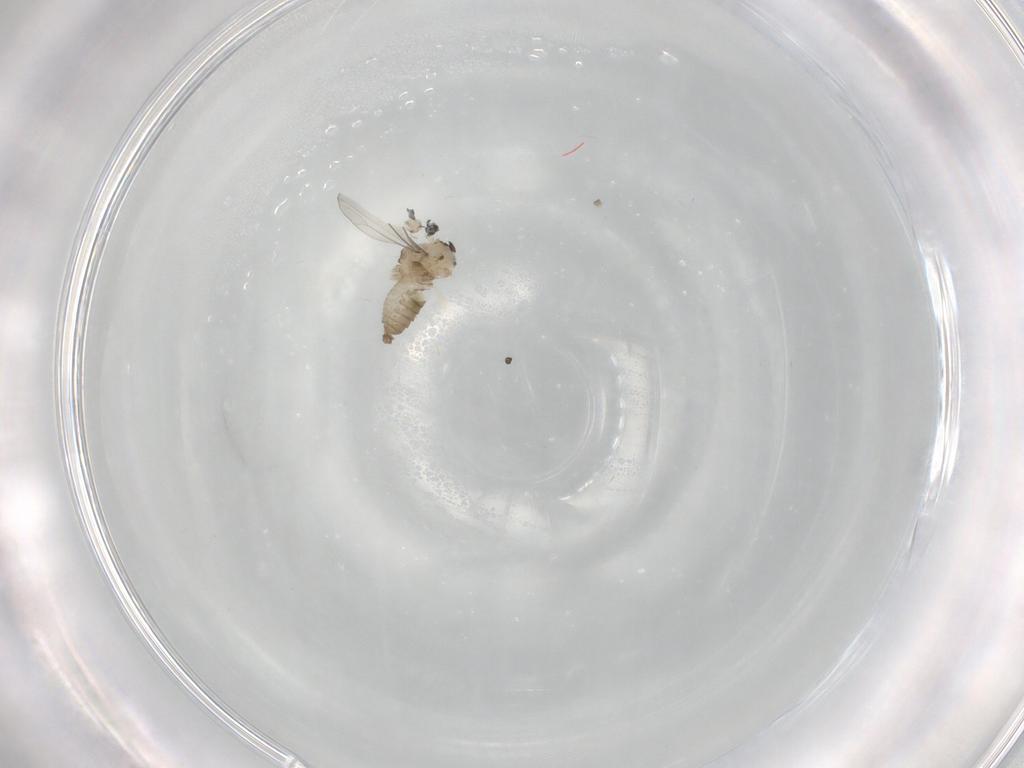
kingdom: Animalia
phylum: Arthropoda
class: Insecta
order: Diptera
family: Cecidomyiidae
